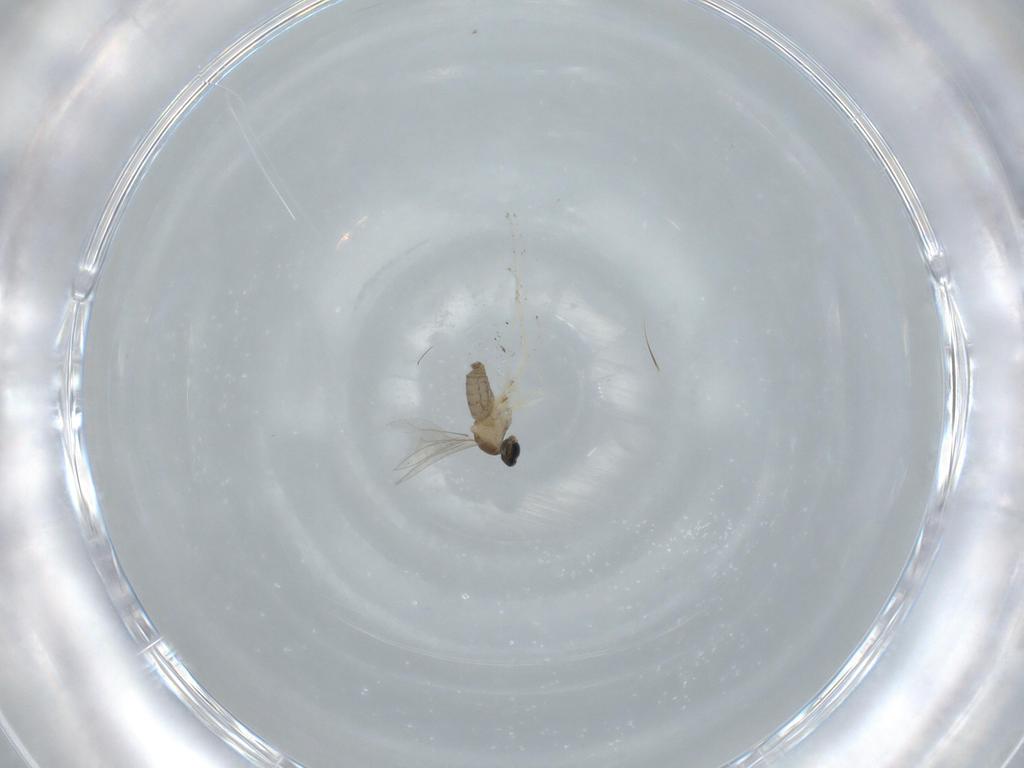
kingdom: Animalia
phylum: Arthropoda
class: Insecta
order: Diptera
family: Cecidomyiidae
